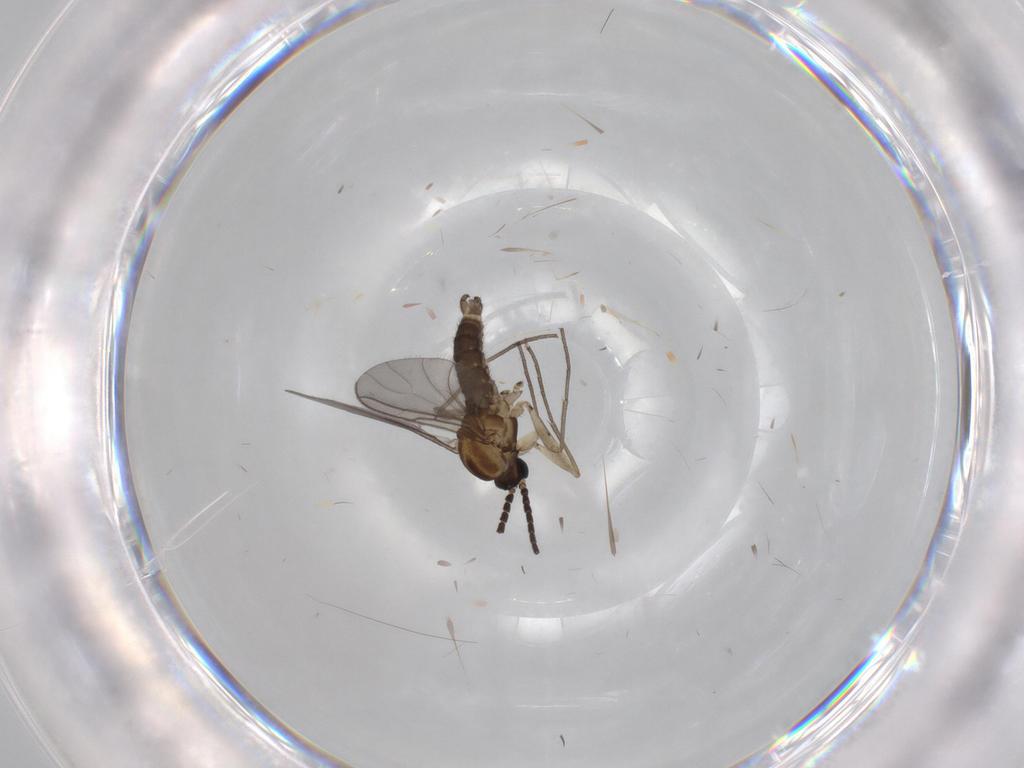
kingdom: Animalia
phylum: Arthropoda
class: Insecta
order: Diptera
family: Sciaridae
